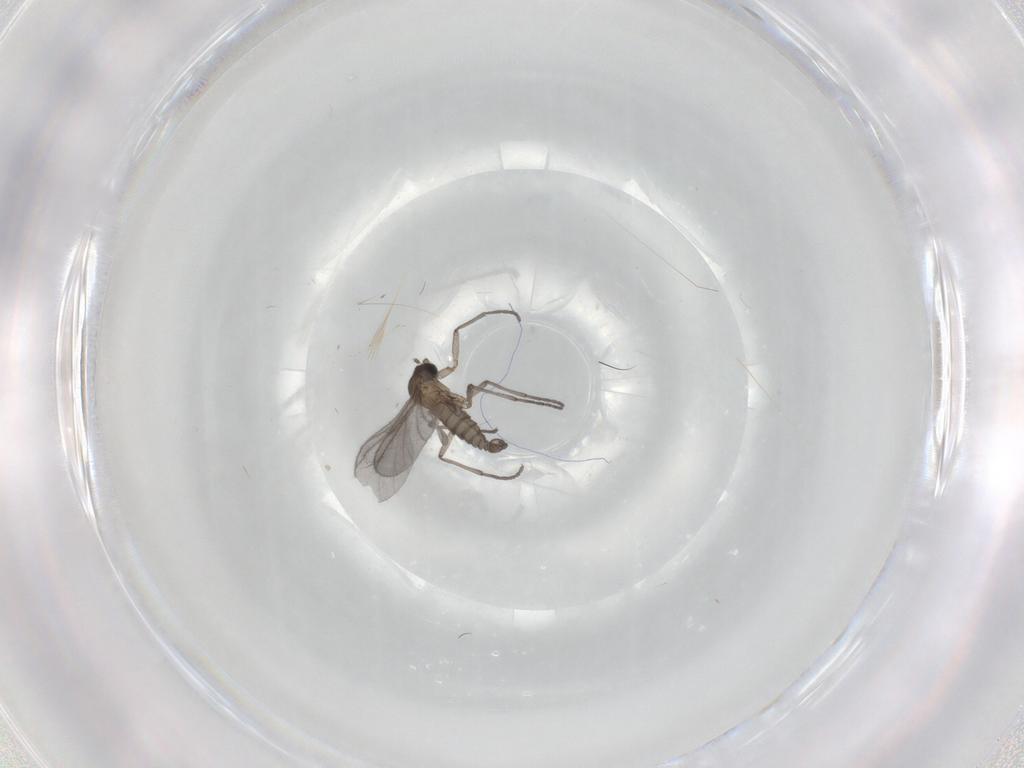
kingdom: Animalia
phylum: Arthropoda
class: Insecta
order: Diptera
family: Sciaridae
